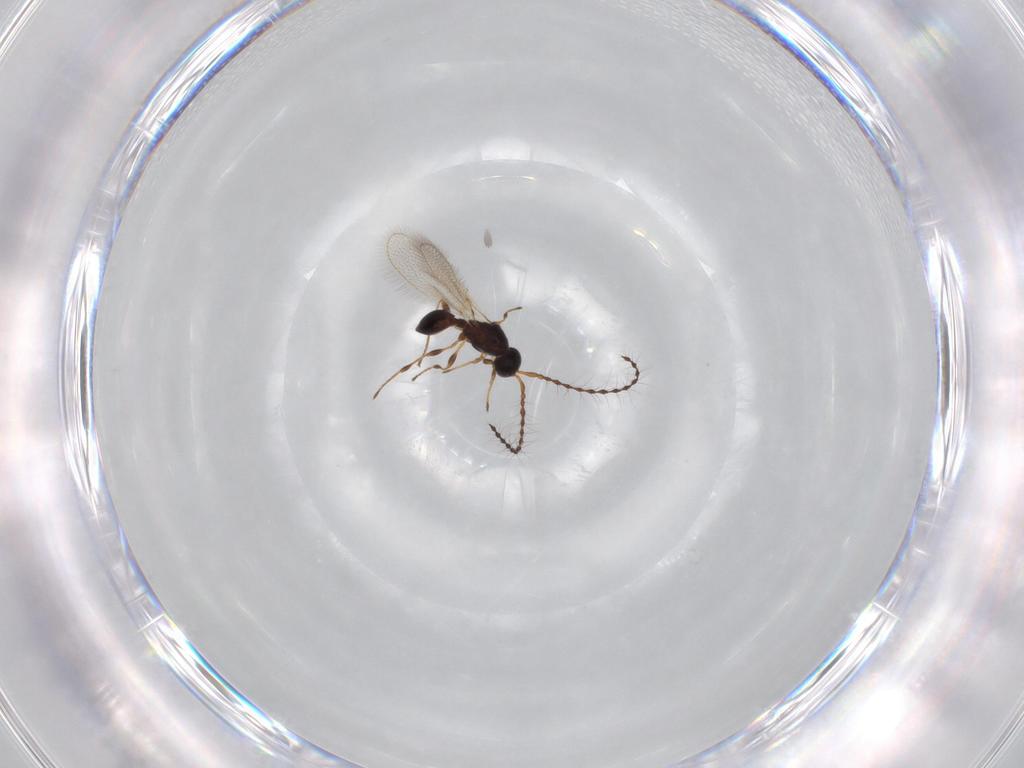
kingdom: Animalia
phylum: Arthropoda
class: Insecta
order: Hymenoptera
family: Diapriidae
